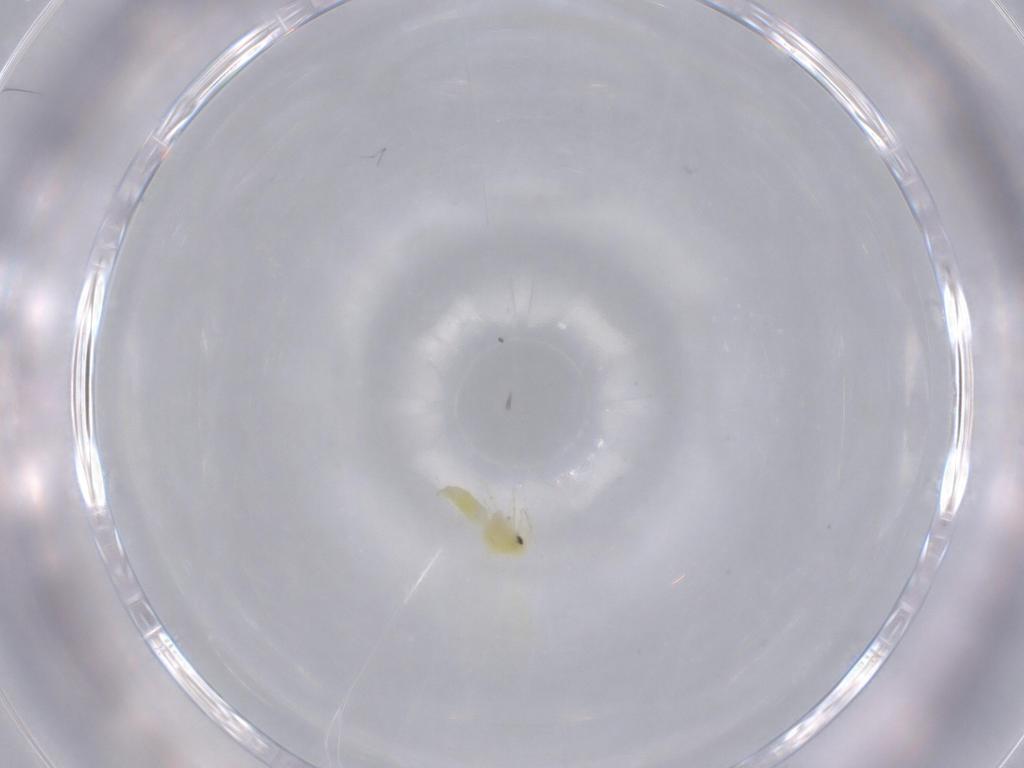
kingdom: Animalia
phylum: Arthropoda
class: Insecta
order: Hemiptera
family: Aleyrodidae
